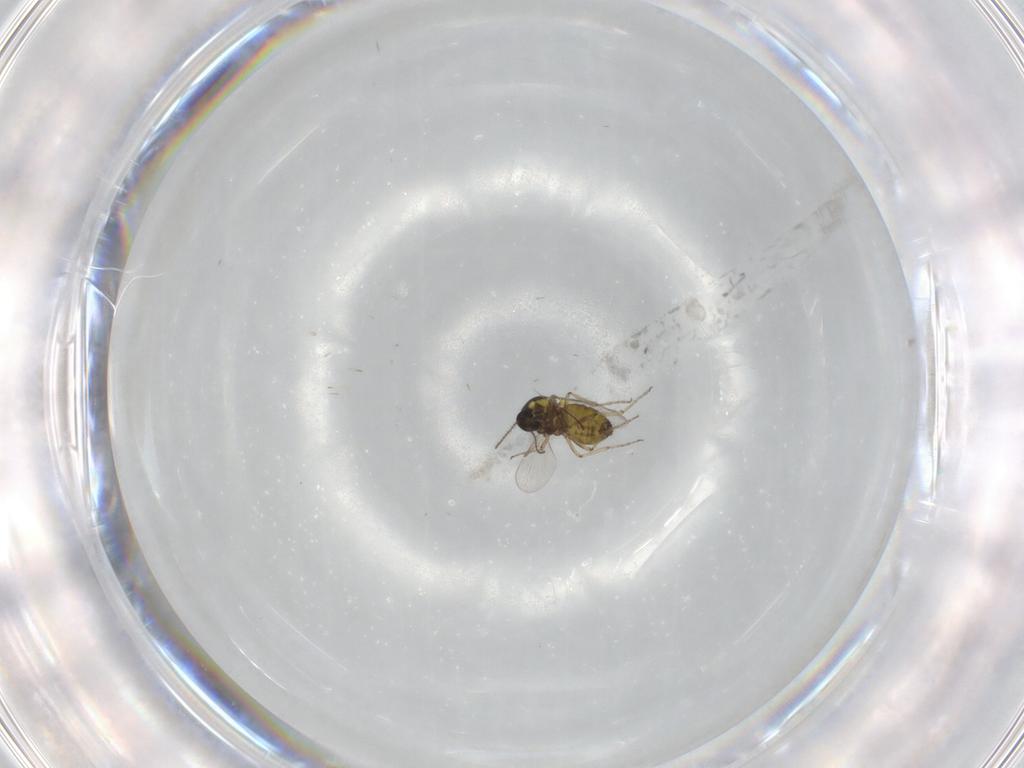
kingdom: Animalia
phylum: Arthropoda
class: Insecta
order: Diptera
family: Ceratopogonidae
